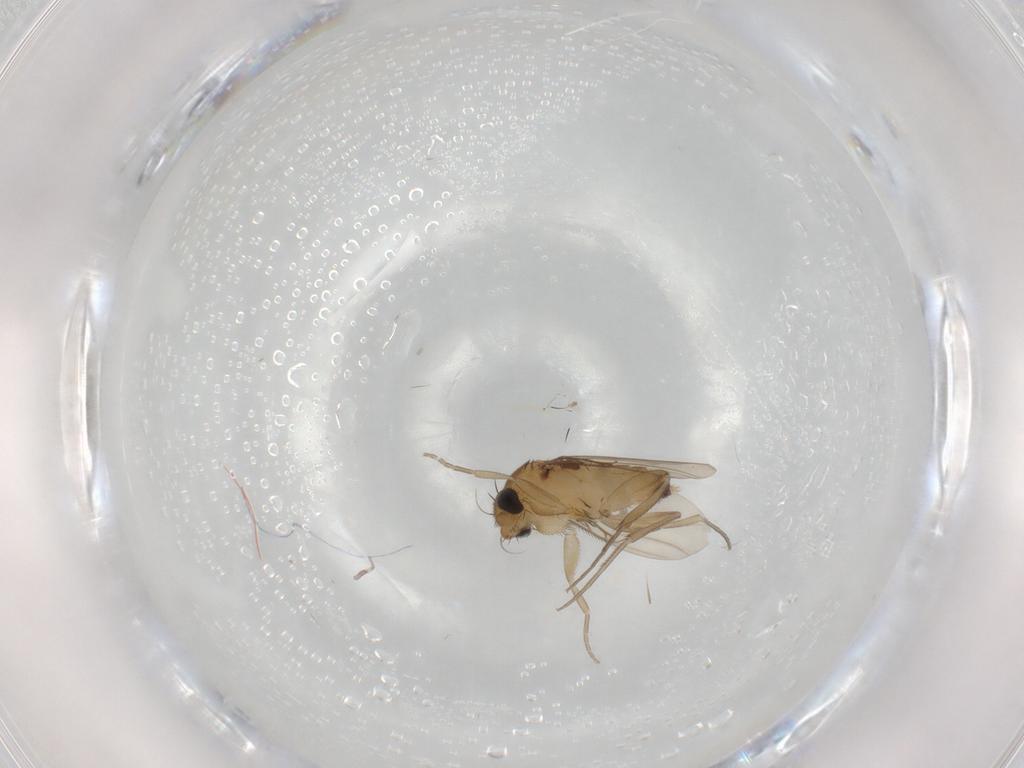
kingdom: Animalia
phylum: Arthropoda
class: Insecta
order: Diptera
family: Phoridae
